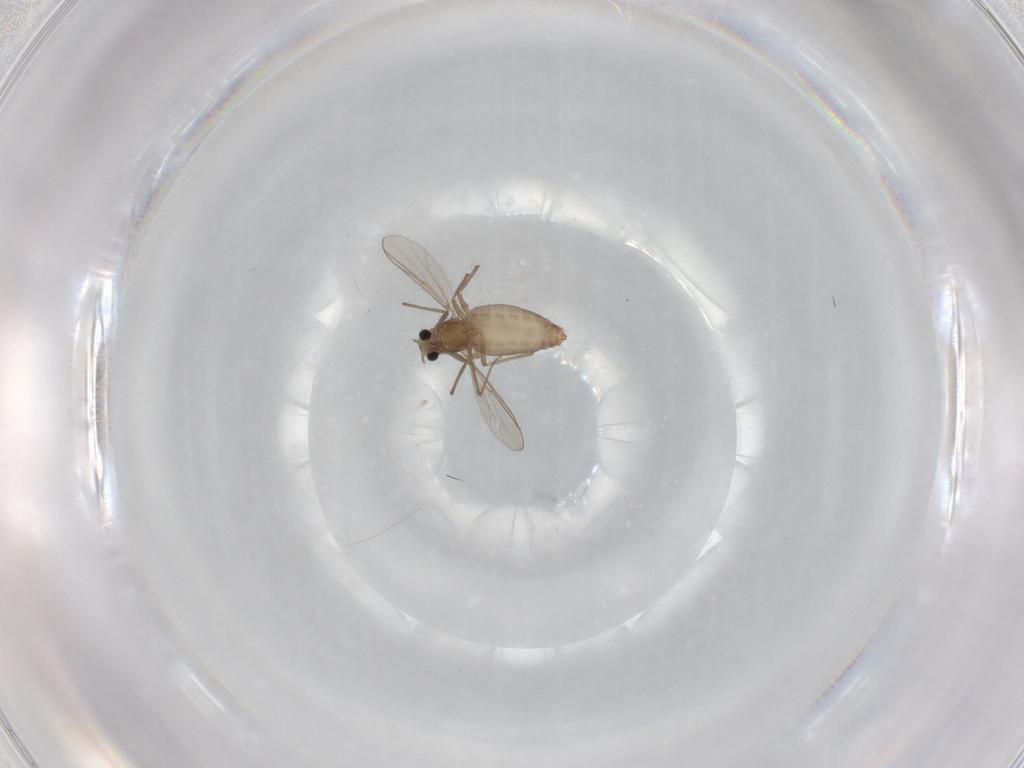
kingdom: Animalia
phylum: Arthropoda
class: Insecta
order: Diptera
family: Chironomidae
